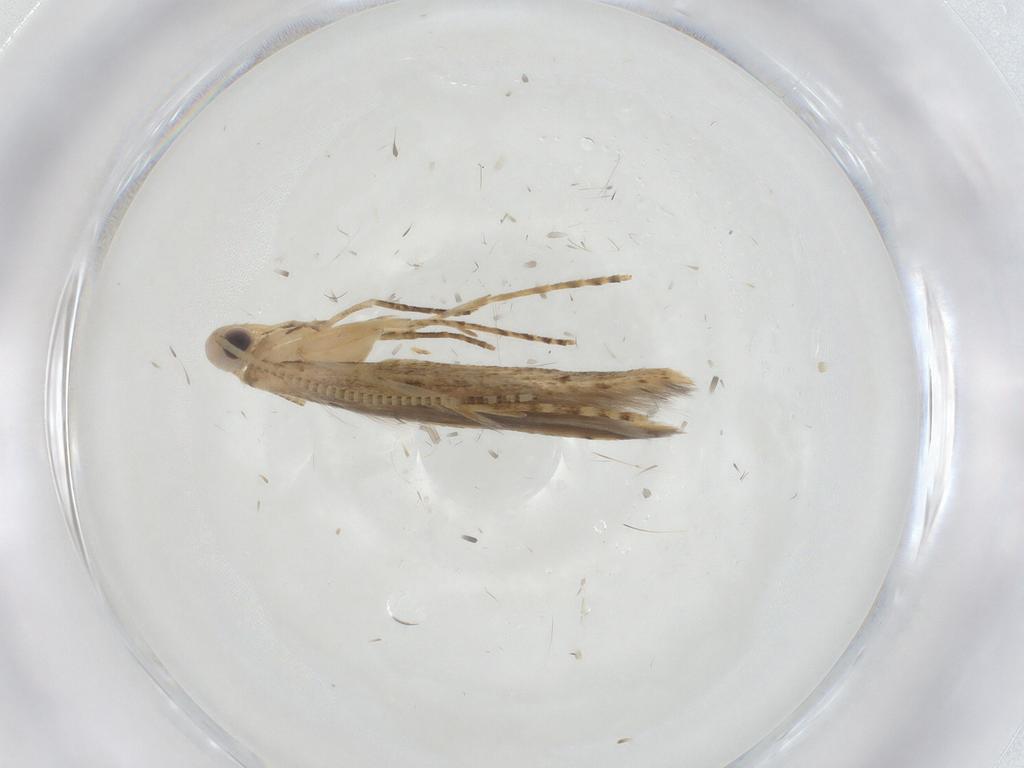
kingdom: Animalia
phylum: Arthropoda
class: Insecta
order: Lepidoptera
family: Batrachedridae
